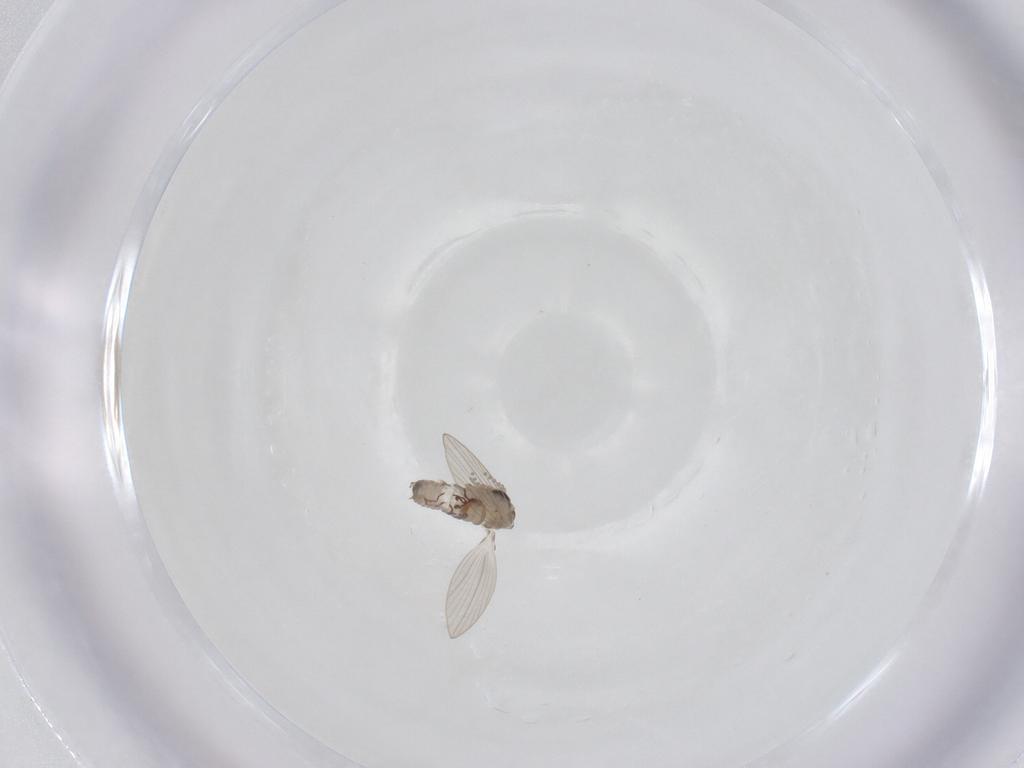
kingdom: Animalia
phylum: Arthropoda
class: Insecta
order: Diptera
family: Psychodidae
